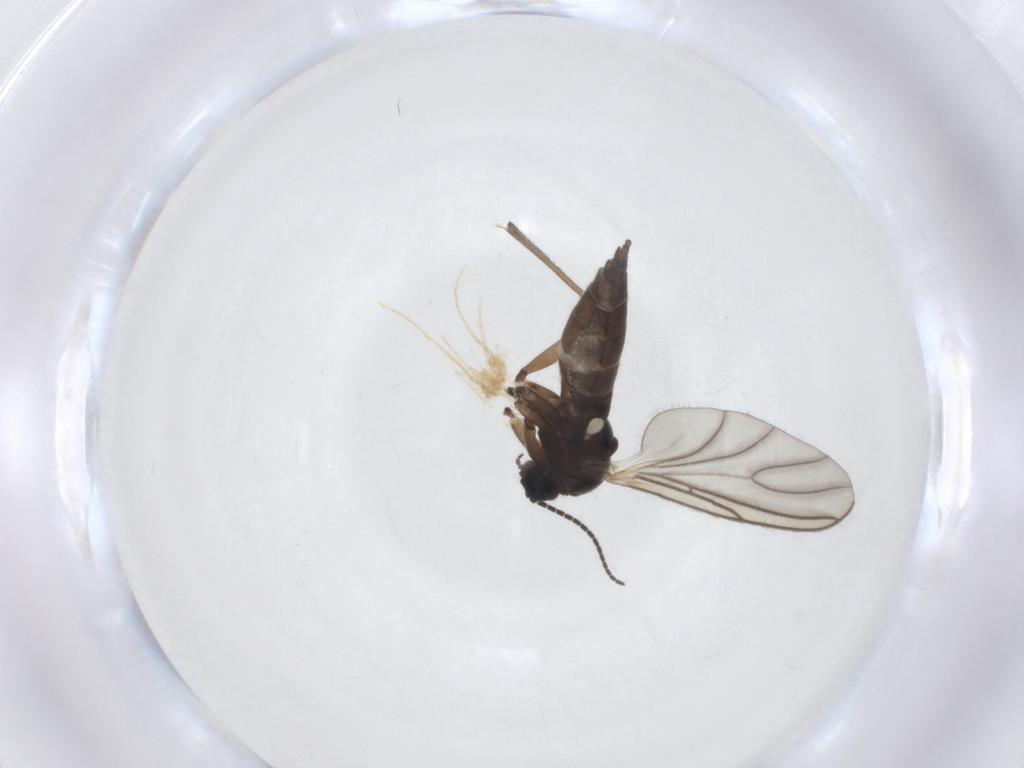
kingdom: Animalia
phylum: Arthropoda
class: Insecta
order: Diptera
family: Sciaridae
